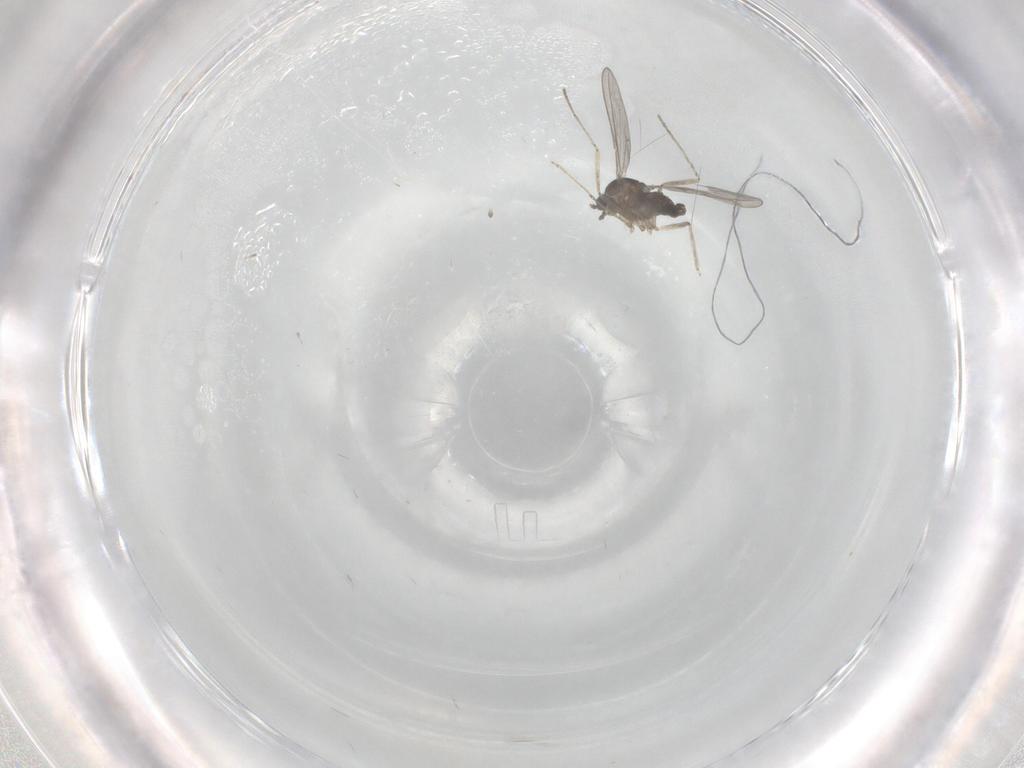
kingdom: Animalia
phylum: Arthropoda
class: Insecta
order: Diptera
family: Cecidomyiidae
